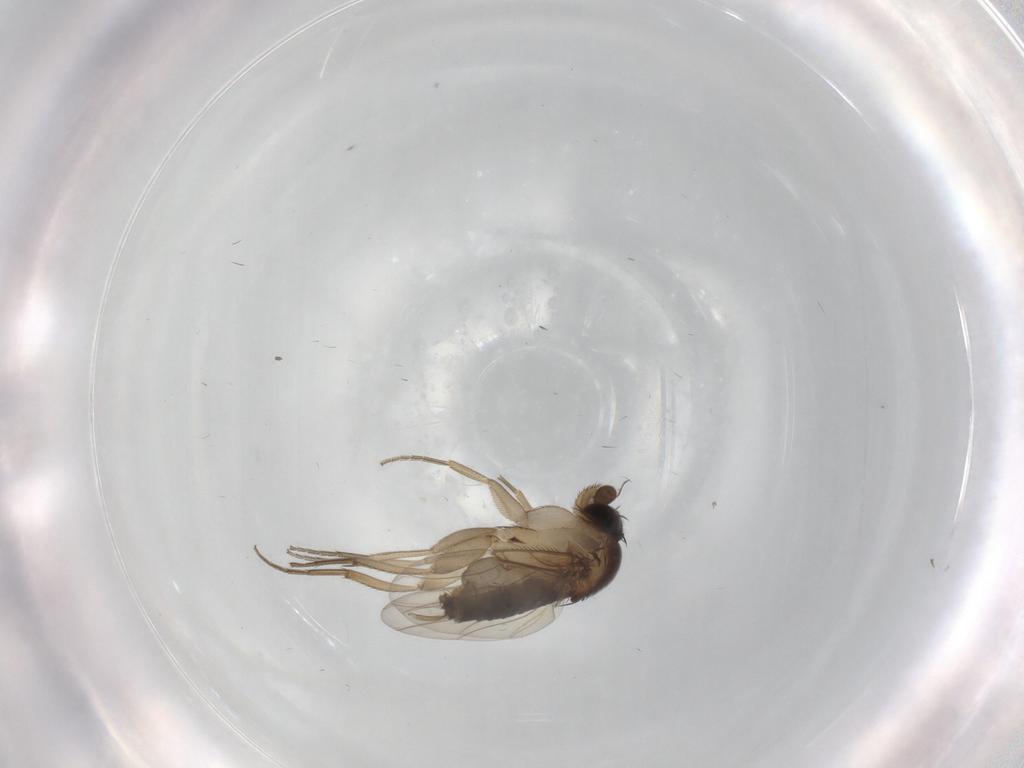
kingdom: Animalia
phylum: Arthropoda
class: Insecta
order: Diptera
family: Phoridae
